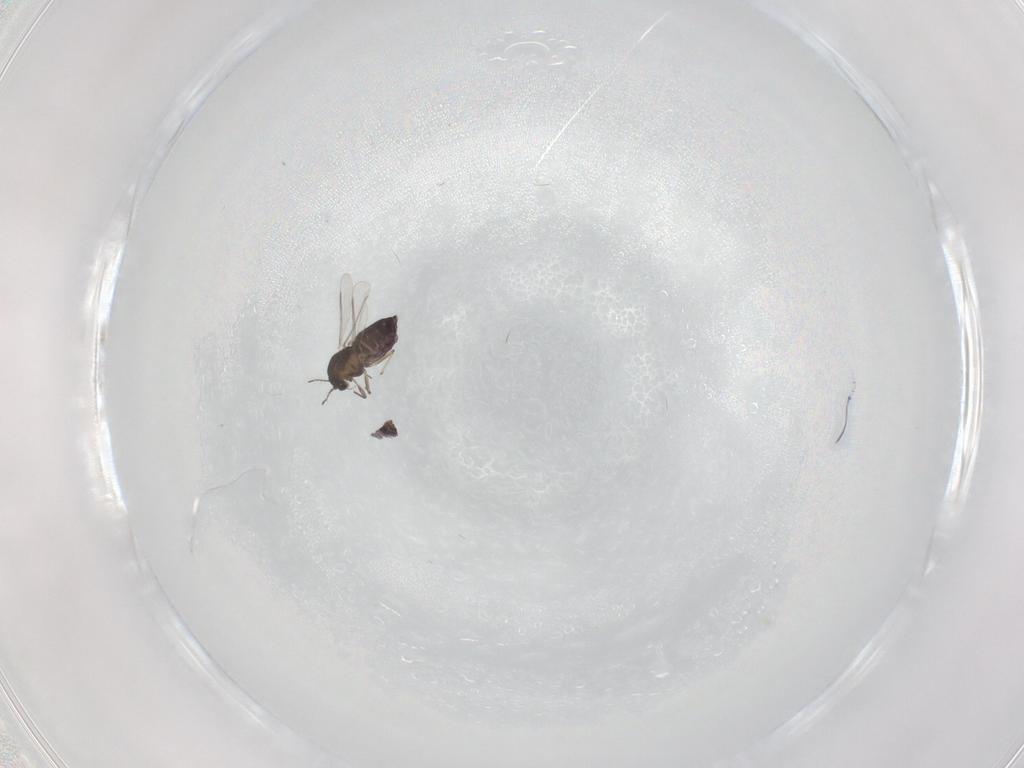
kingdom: Animalia
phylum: Arthropoda
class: Insecta
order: Diptera
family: Chironomidae
